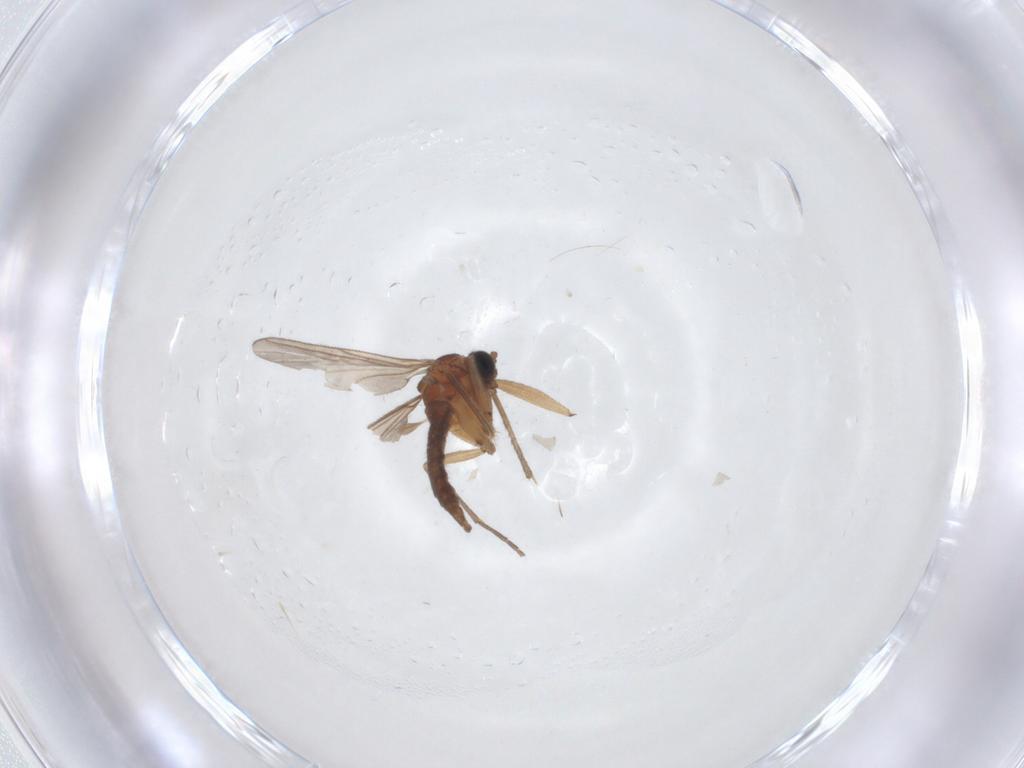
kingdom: Animalia
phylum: Arthropoda
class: Insecta
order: Diptera
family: Sciaridae
